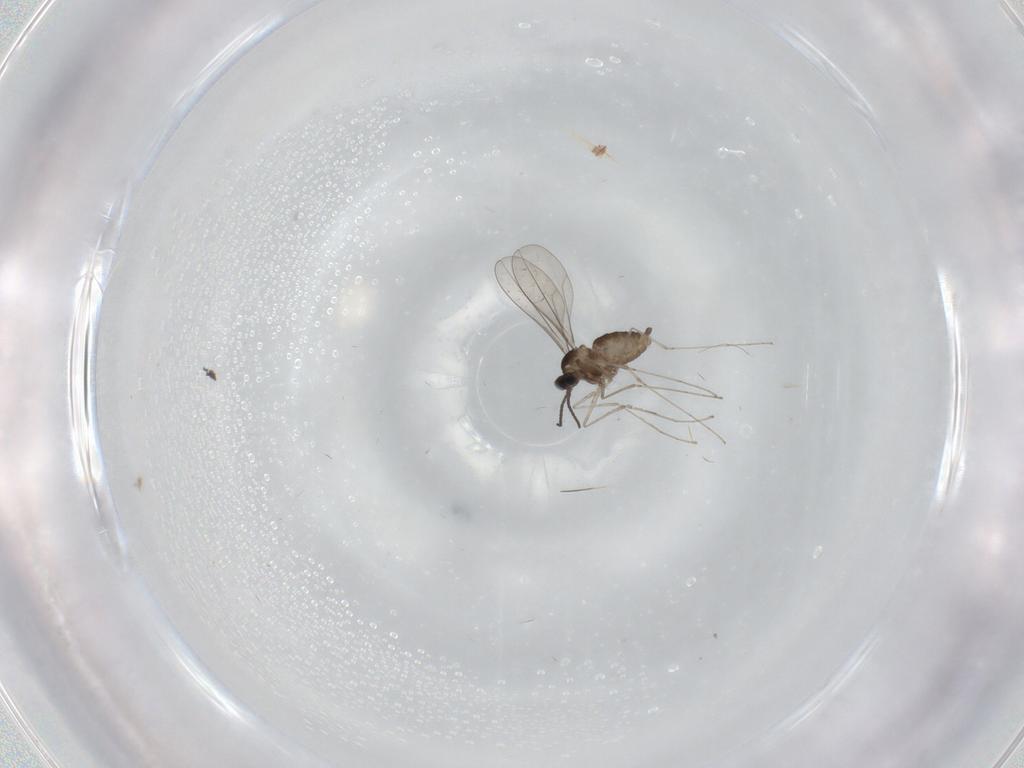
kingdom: Animalia
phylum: Arthropoda
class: Insecta
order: Diptera
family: Cecidomyiidae
